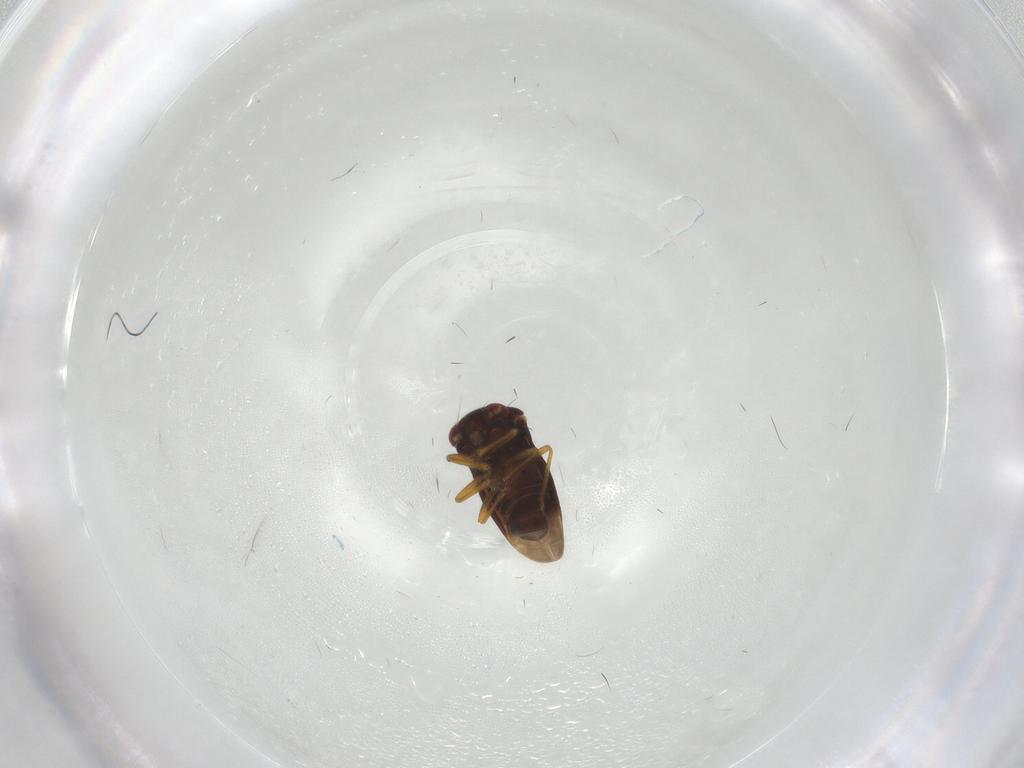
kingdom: Animalia
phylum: Arthropoda
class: Insecta
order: Hemiptera
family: Schizopteridae
